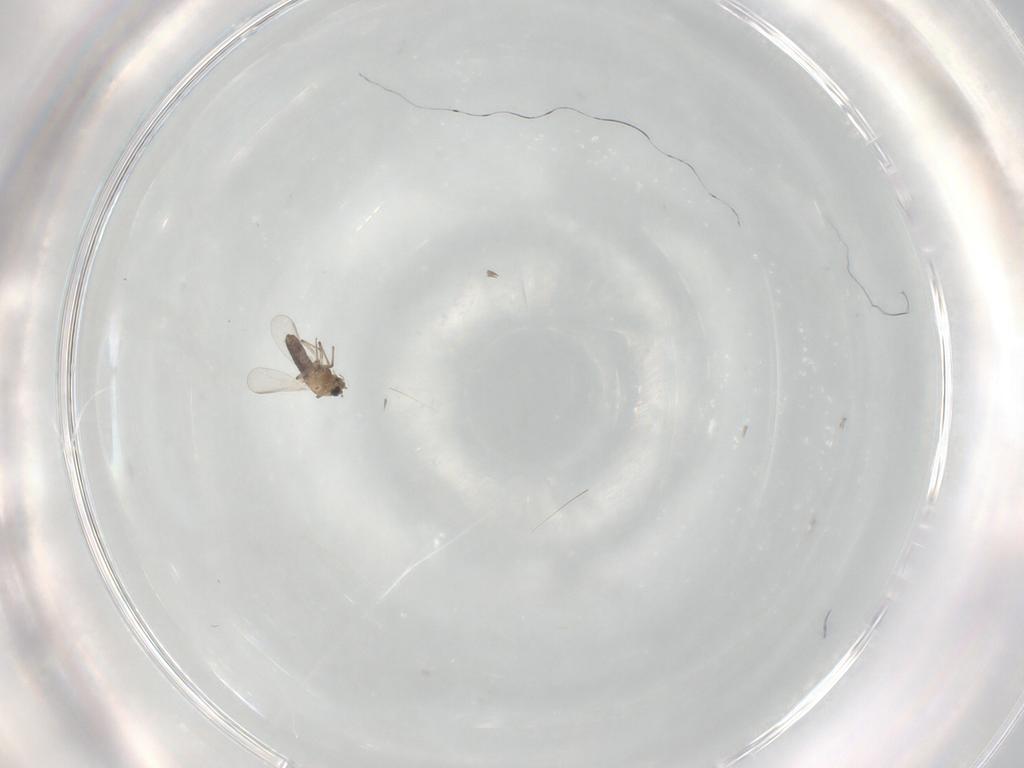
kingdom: Animalia
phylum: Arthropoda
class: Insecta
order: Diptera
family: Chironomidae
